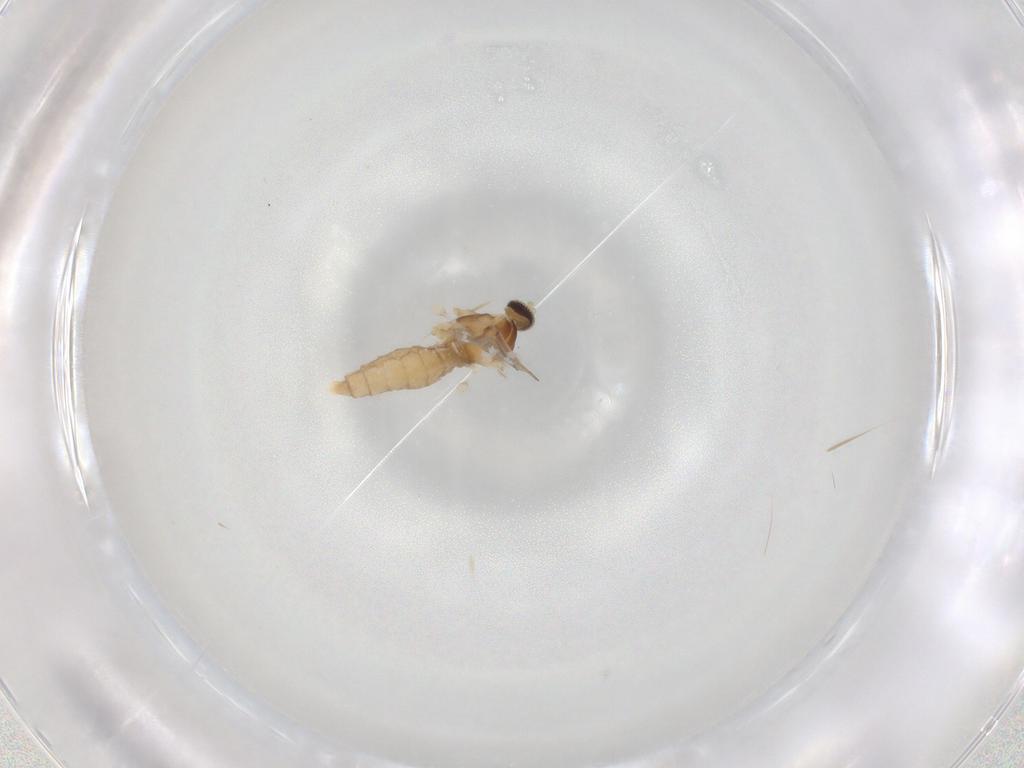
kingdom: Animalia
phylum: Arthropoda
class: Insecta
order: Diptera
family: Cecidomyiidae
